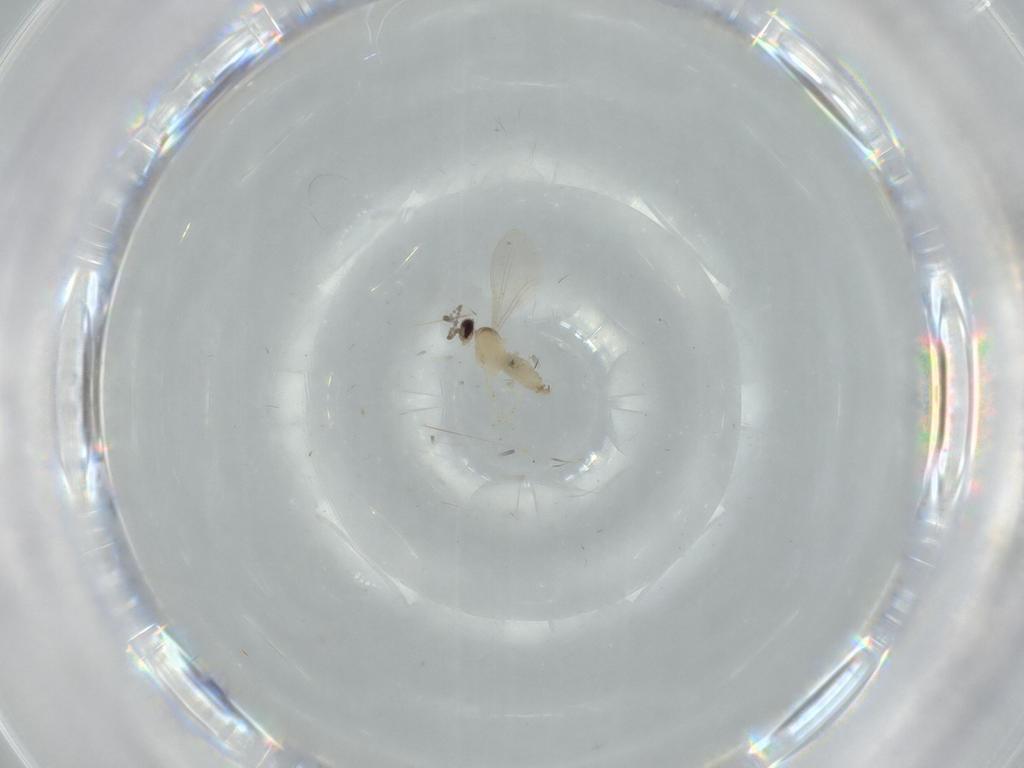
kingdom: Animalia
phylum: Arthropoda
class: Insecta
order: Diptera
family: Cecidomyiidae
